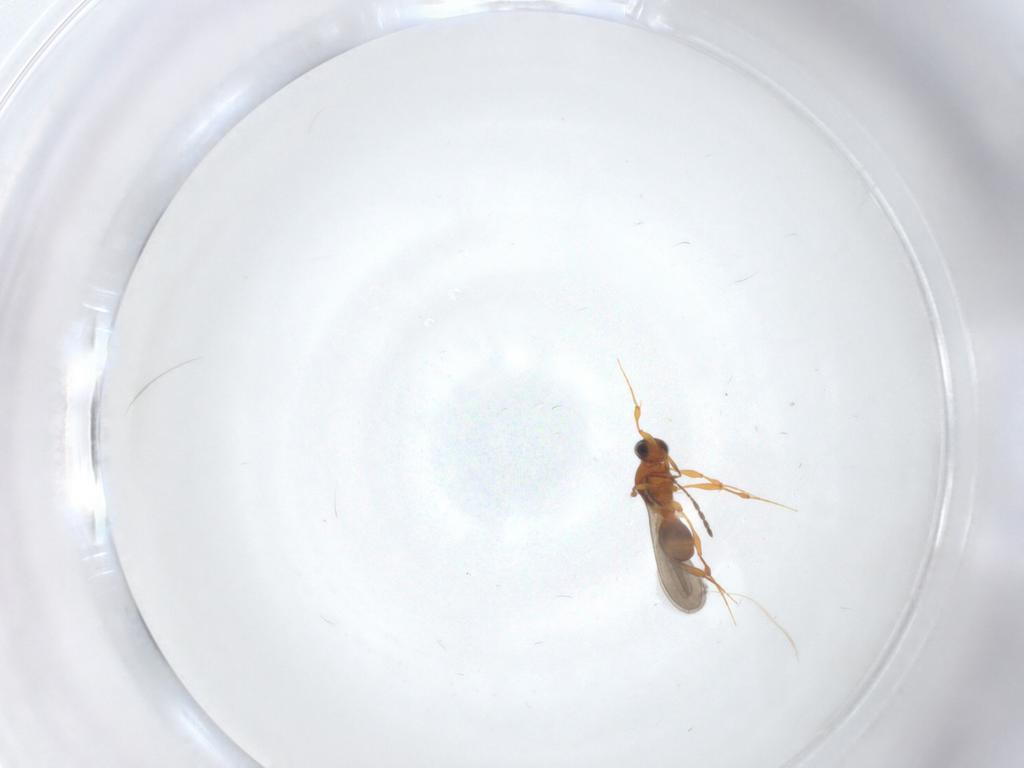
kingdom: Animalia
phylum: Arthropoda
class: Insecta
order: Hymenoptera
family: Platygastridae
